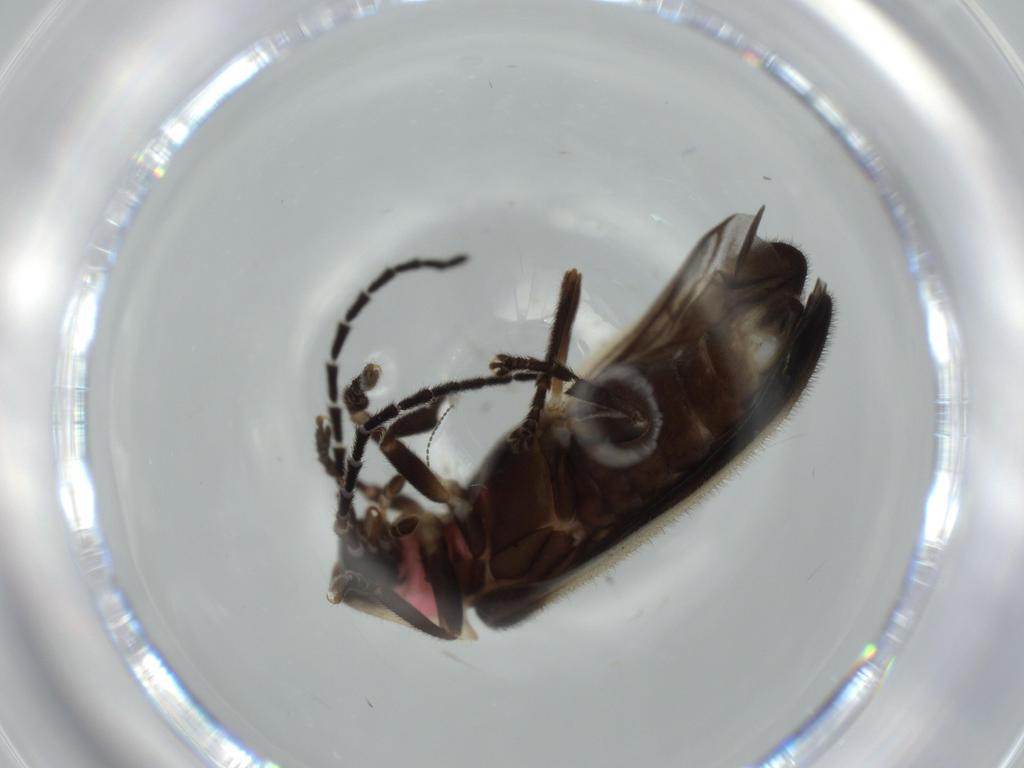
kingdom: Animalia
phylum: Arthropoda
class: Insecta
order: Coleoptera
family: Lampyridae
